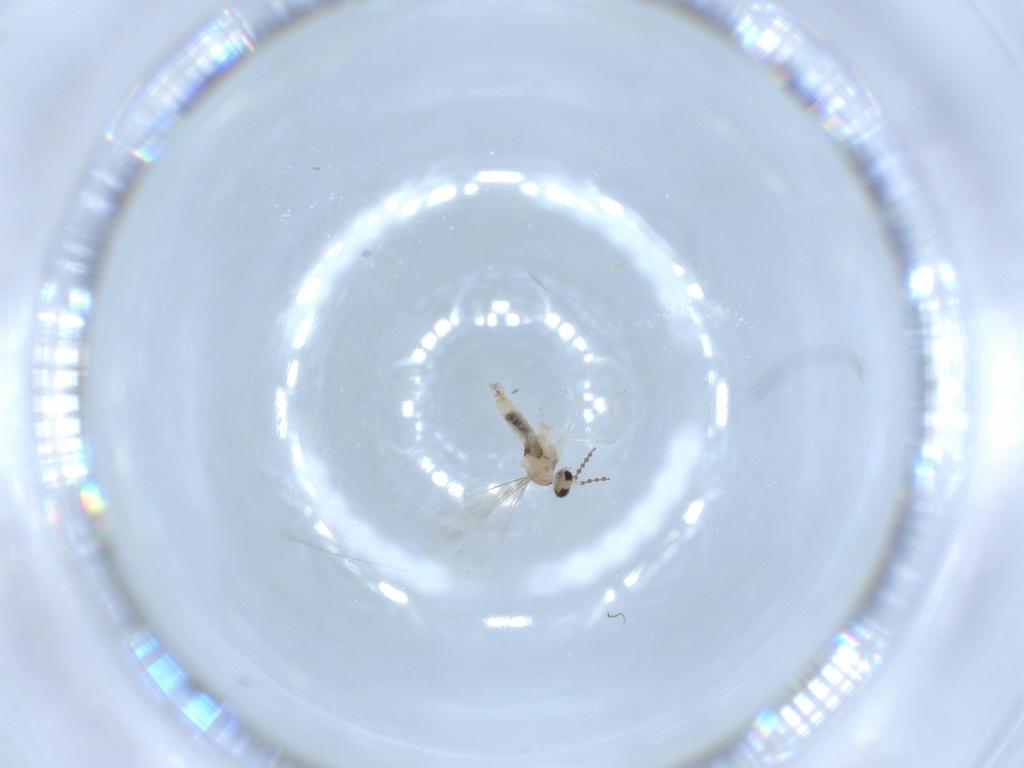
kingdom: Animalia
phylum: Arthropoda
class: Insecta
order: Diptera
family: Cecidomyiidae
